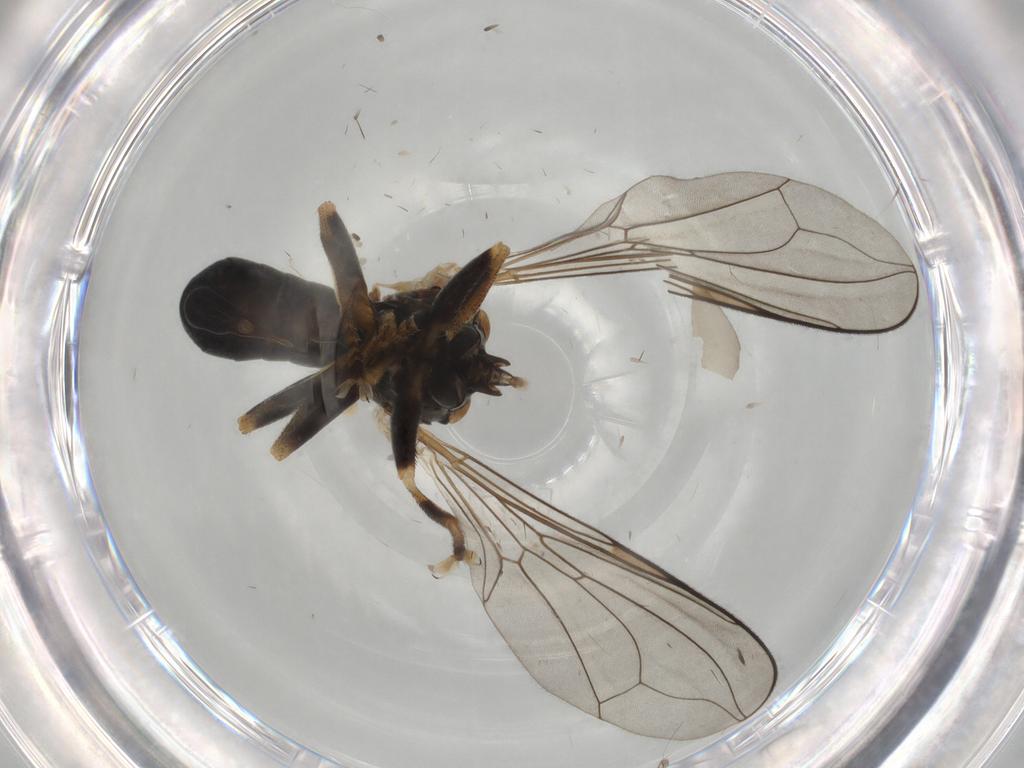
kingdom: Animalia
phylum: Arthropoda
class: Insecta
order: Diptera
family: Pipunculidae
